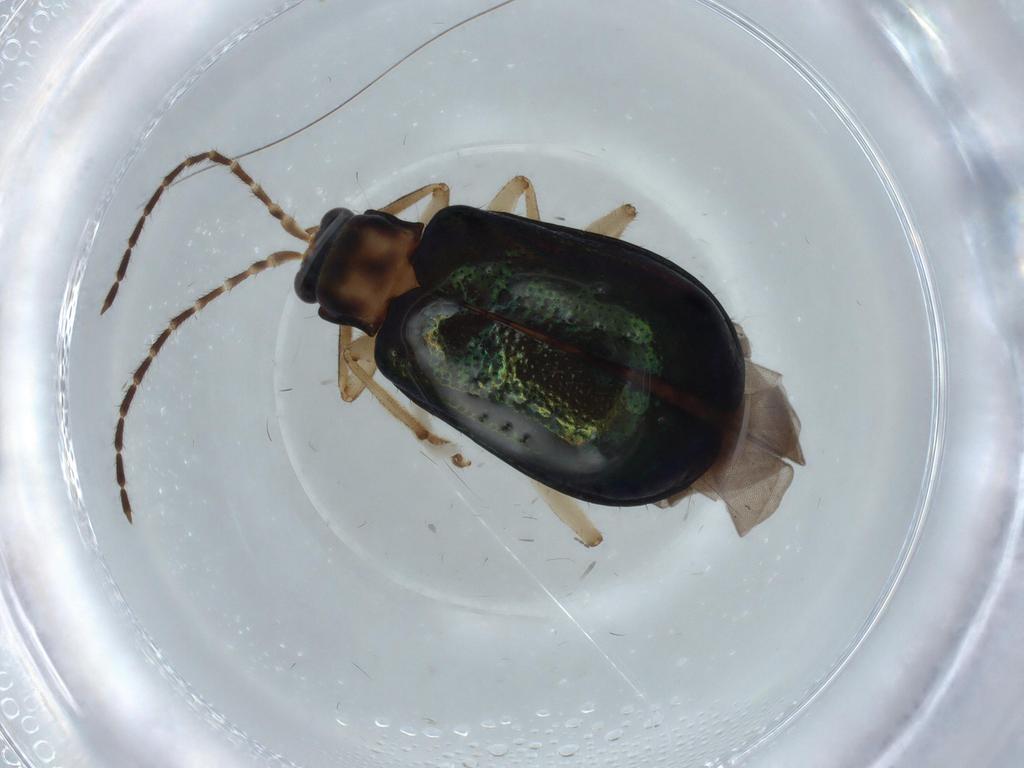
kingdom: Animalia
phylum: Arthropoda
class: Insecta
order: Coleoptera
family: Chrysomelidae
